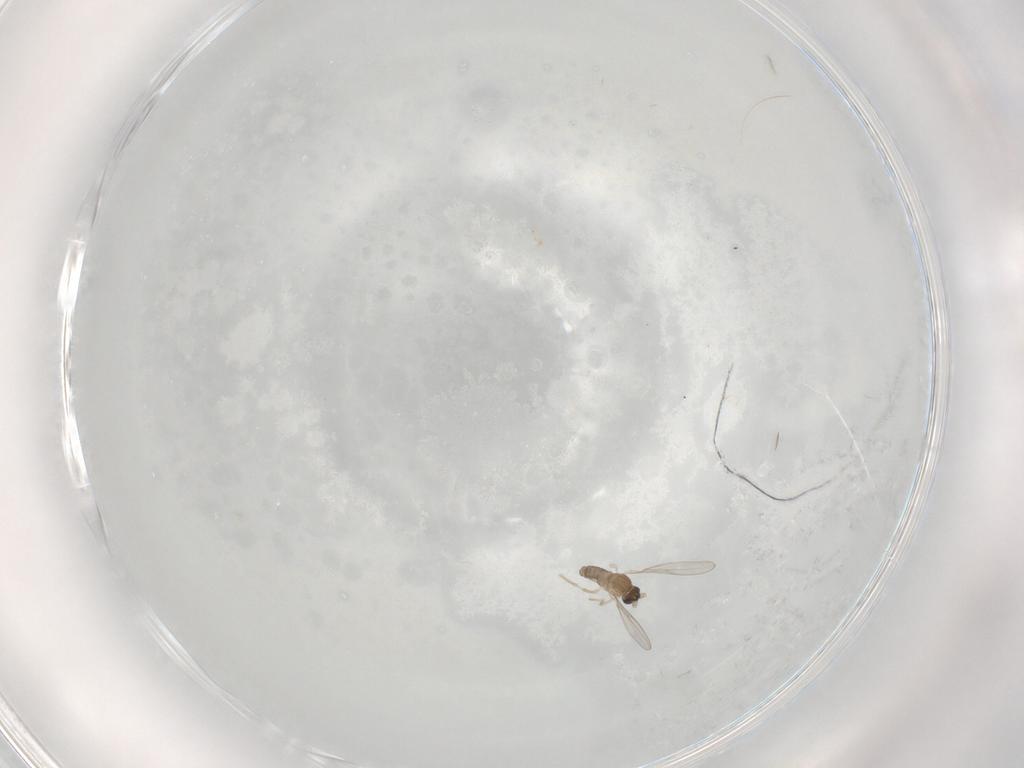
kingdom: Animalia
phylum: Arthropoda
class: Insecta
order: Diptera
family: Cecidomyiidae
